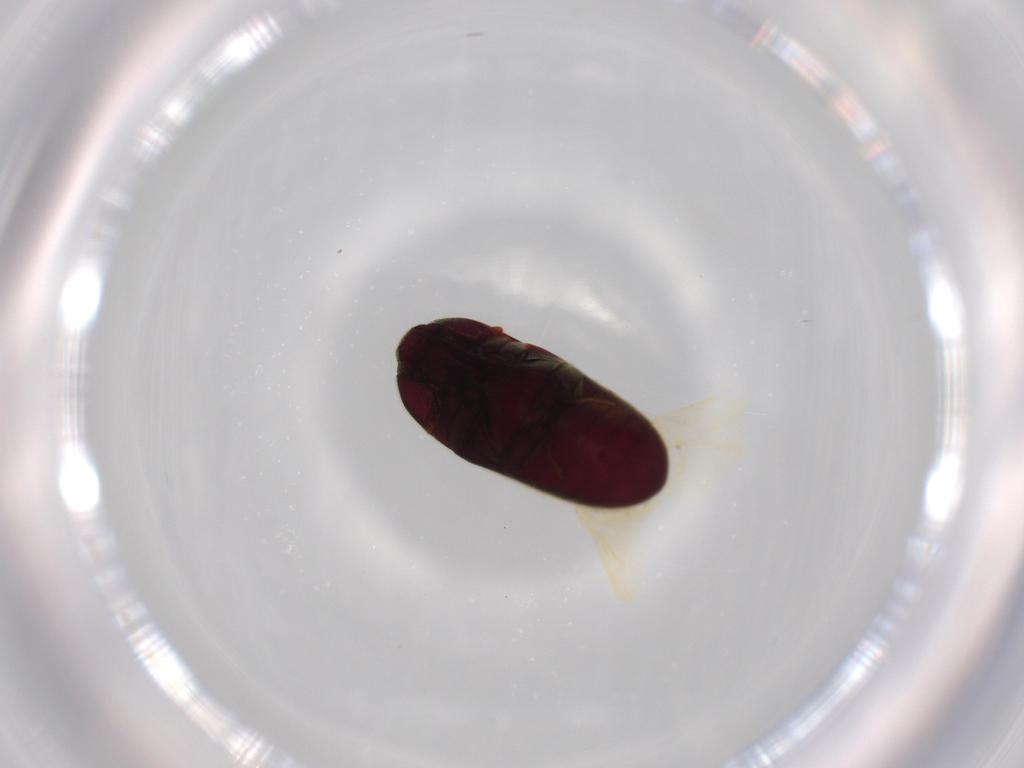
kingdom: Animalia
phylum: Arthropoda
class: Insecta
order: Coleoptera
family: Throscidae
